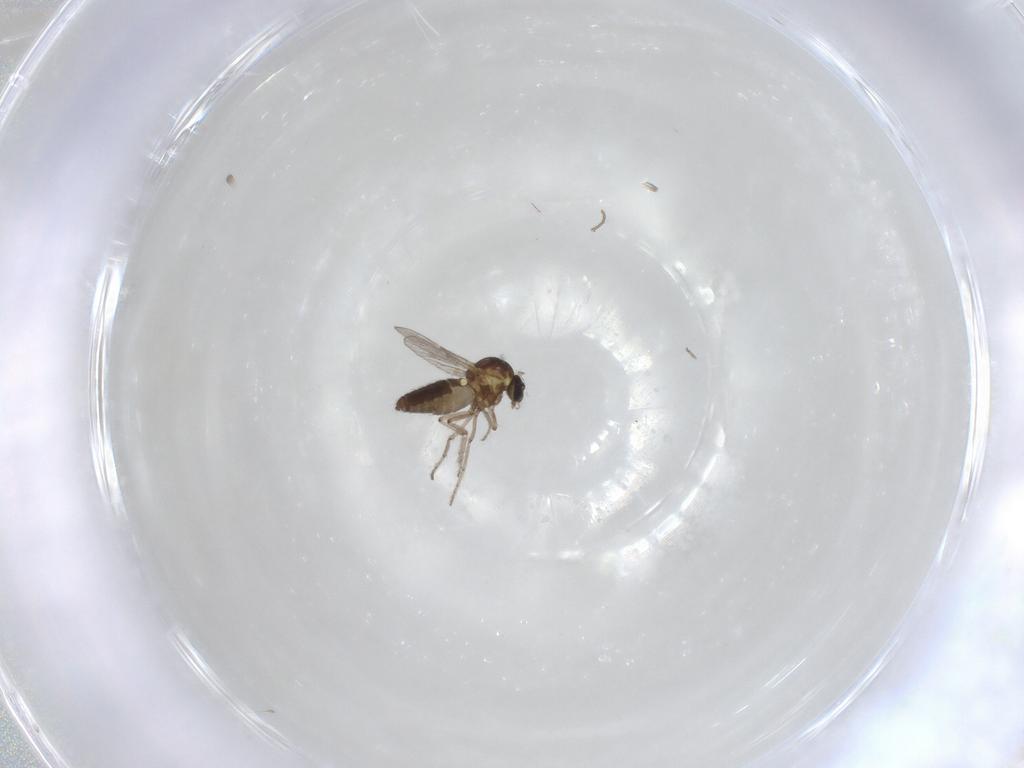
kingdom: Animalia
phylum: Arthropoda
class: Insecta
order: Diptera
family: Ceratopogonidae
